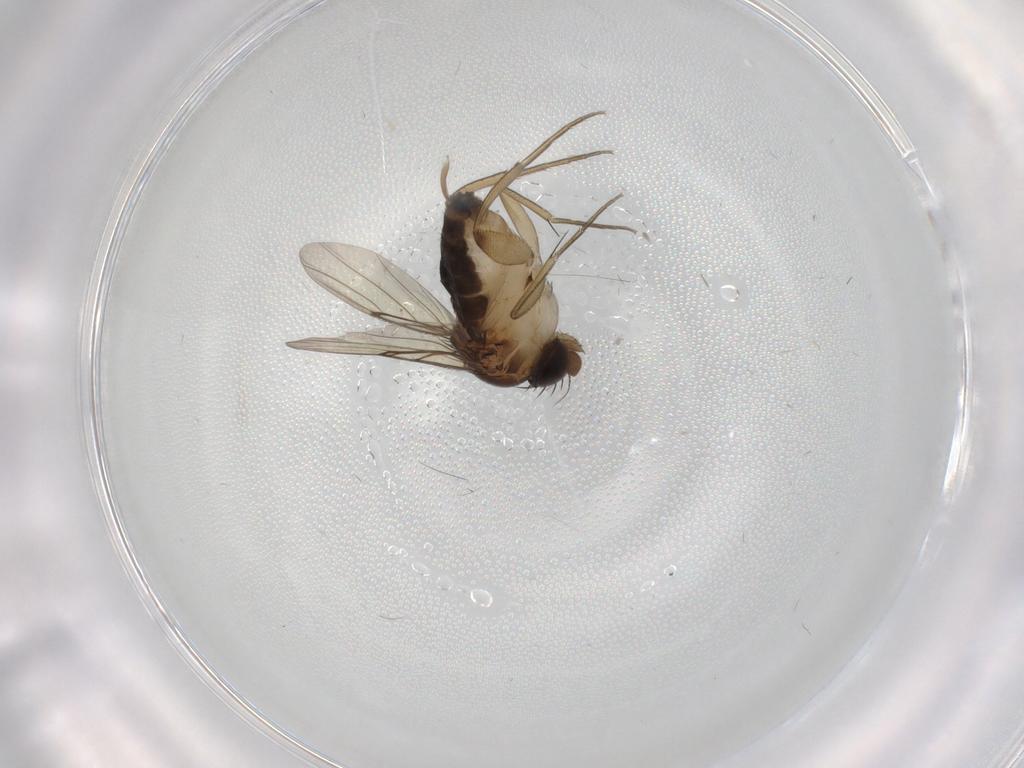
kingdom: Animalia
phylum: Arthropoda
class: Insecta
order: Diptera
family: Phoridae
